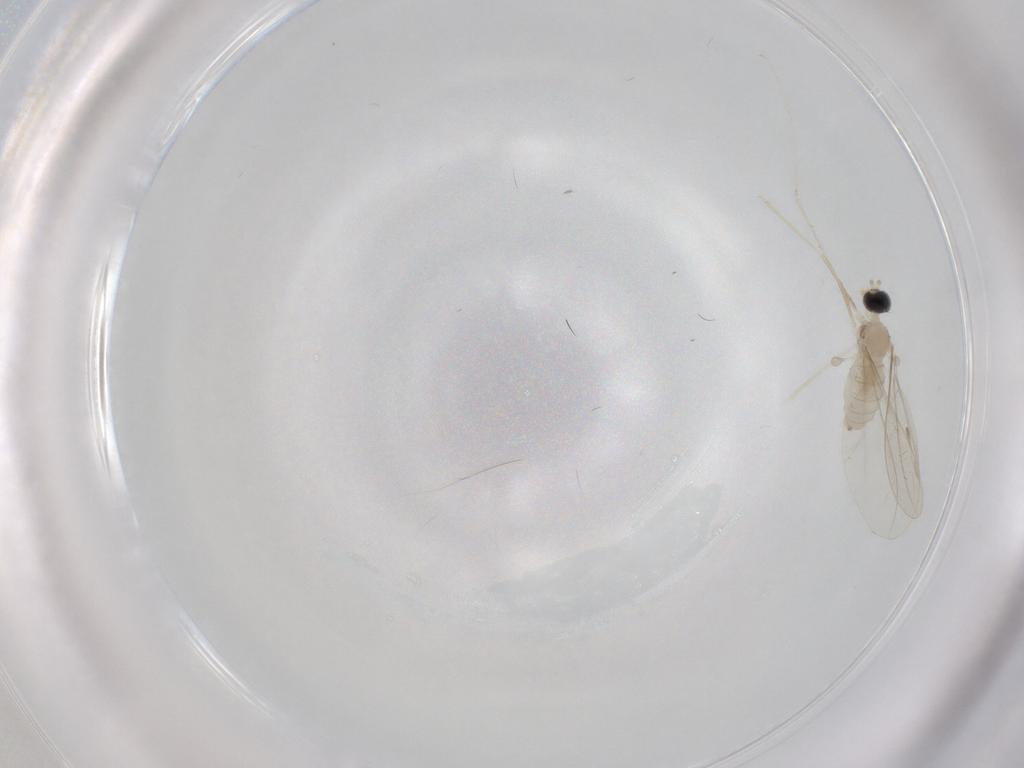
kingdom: Animalia
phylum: Arthropoda
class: Insecta
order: Diptera
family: Cecidomyiidae
